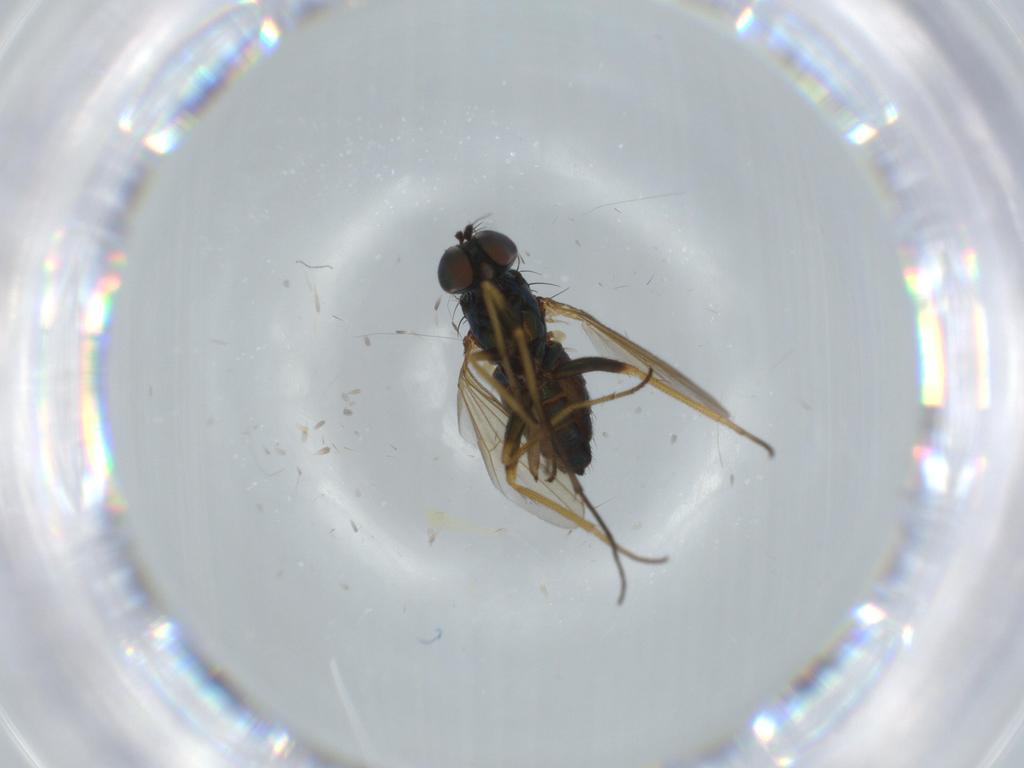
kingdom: Animalia
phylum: Arthropoda
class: Insecta
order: Diptera
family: Dolichopodidae
